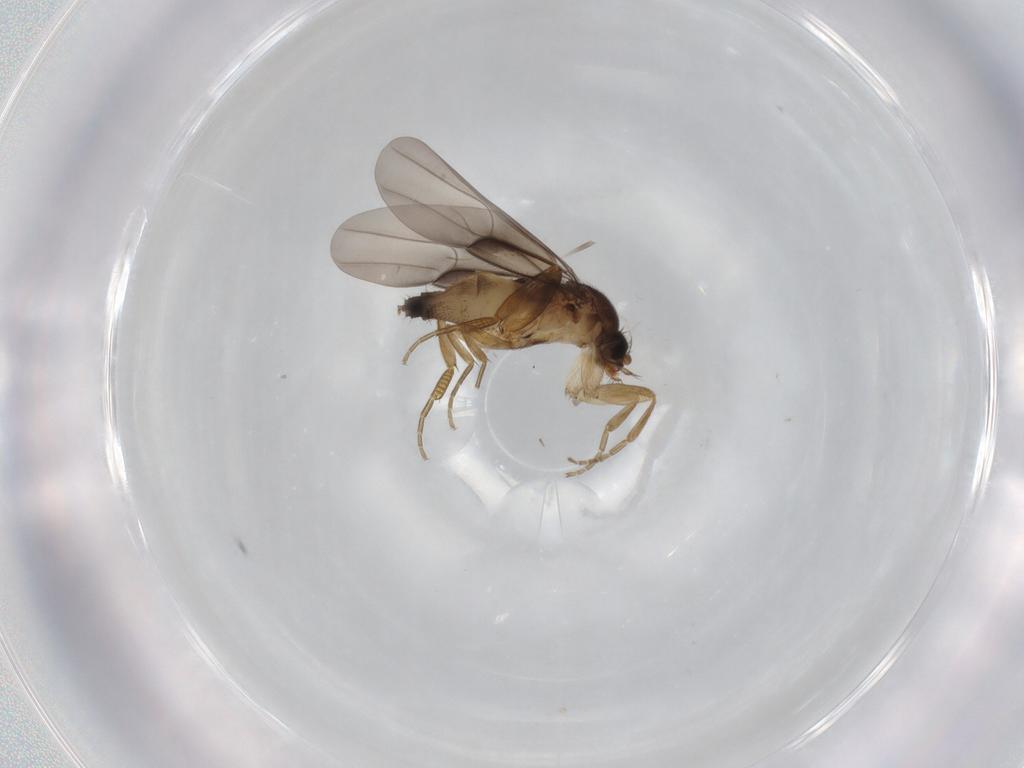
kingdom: Animalia
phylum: Arthropoda
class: Insecta
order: Diptera
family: Phoridae
